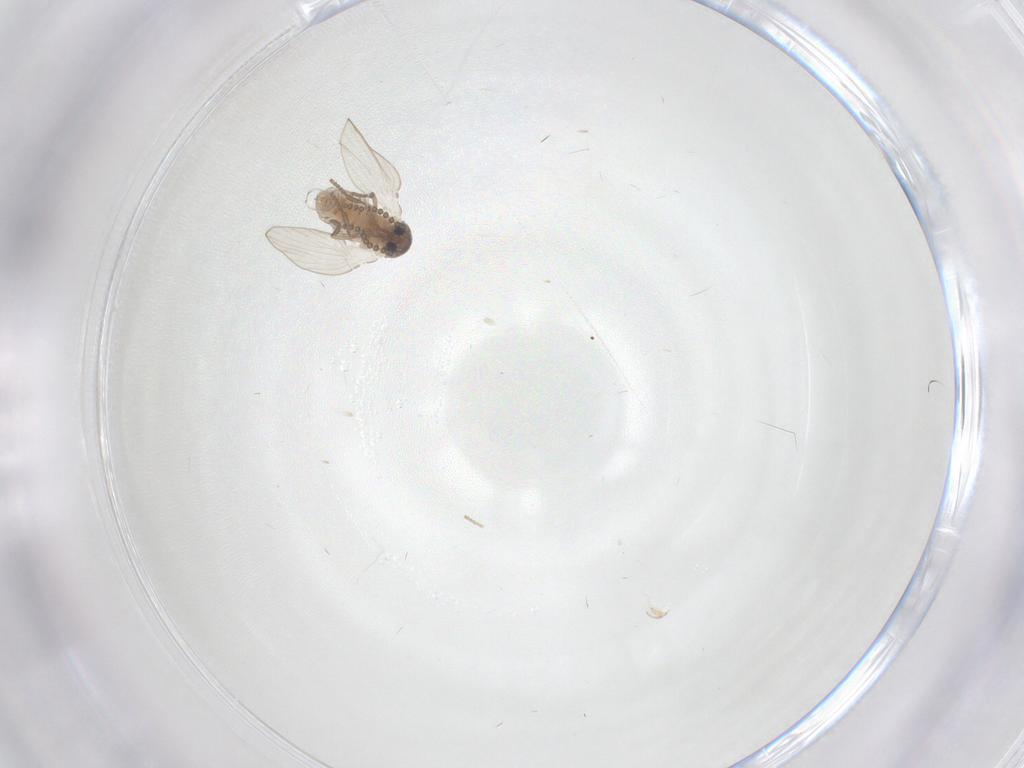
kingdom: Animalia
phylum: Arthropoda
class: Insecta
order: Diptera
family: Psychodidae
